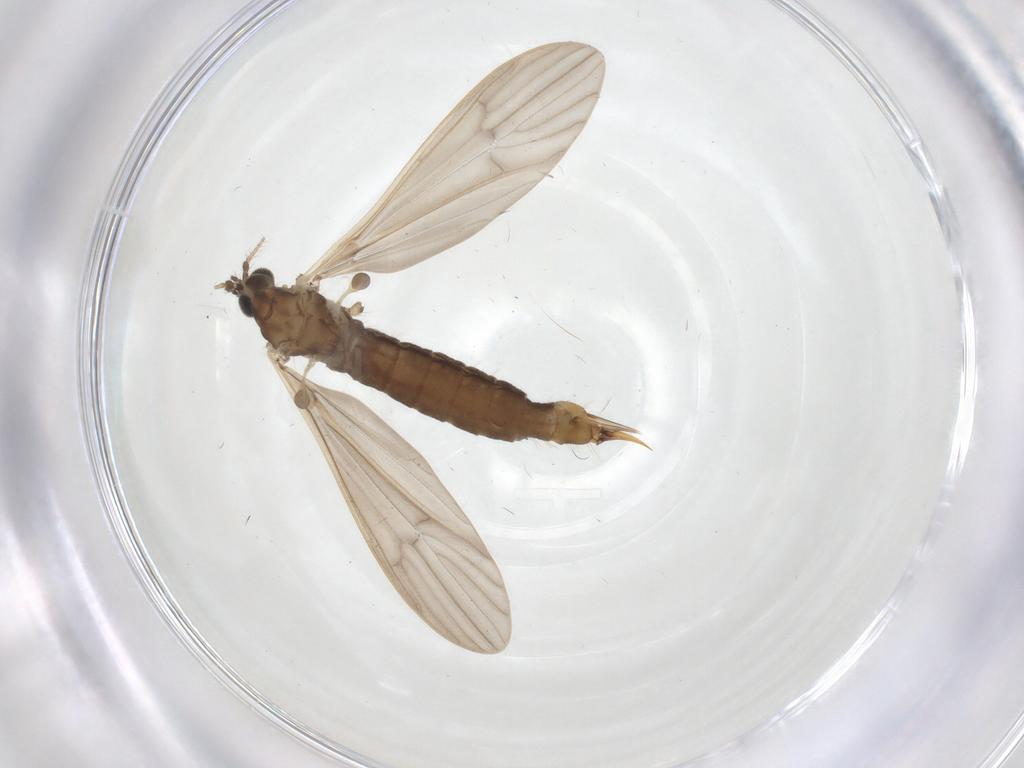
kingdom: Animalia
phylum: Arthropoda
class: Insecta
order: Diptera
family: Limoniidae
